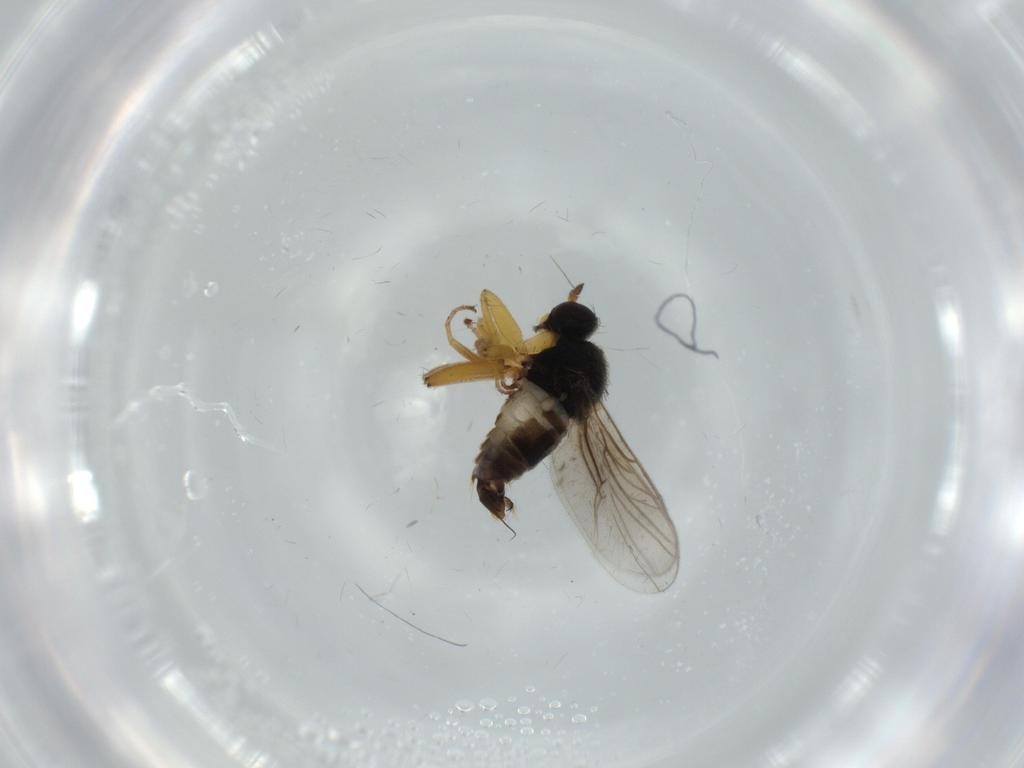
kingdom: Animalia
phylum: Arthropoda
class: Insecta
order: Diptera
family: Hybotidae
